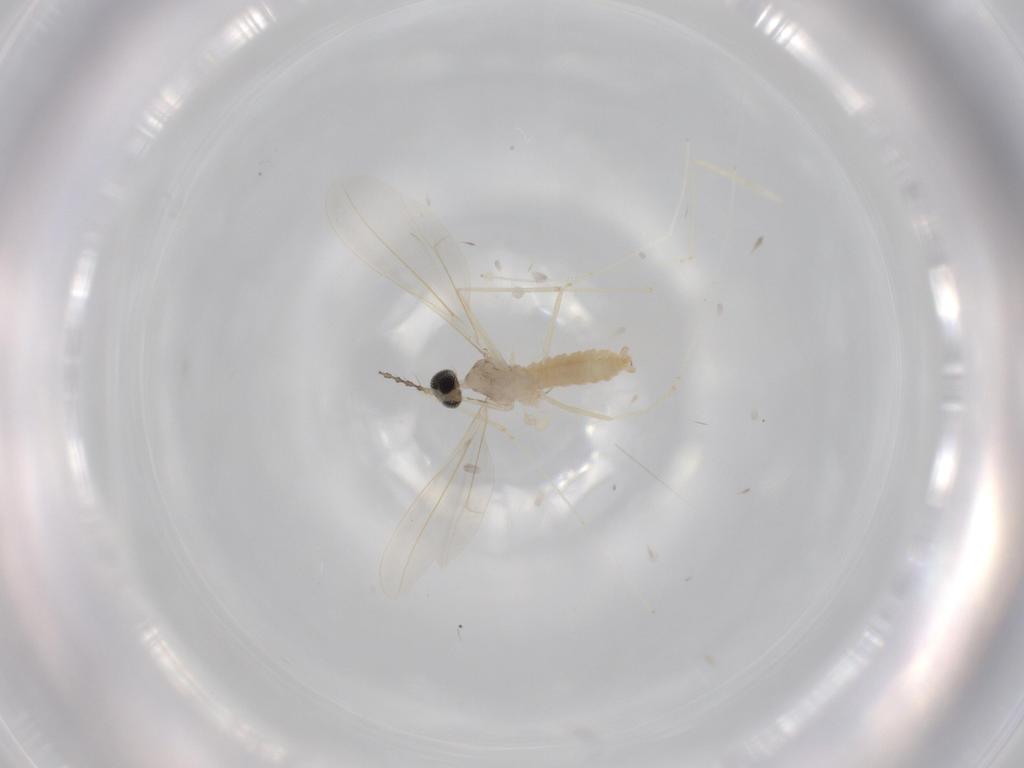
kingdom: Animalia
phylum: Arthropoda
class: Insecta
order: Diptera
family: Cecidomyiidae
